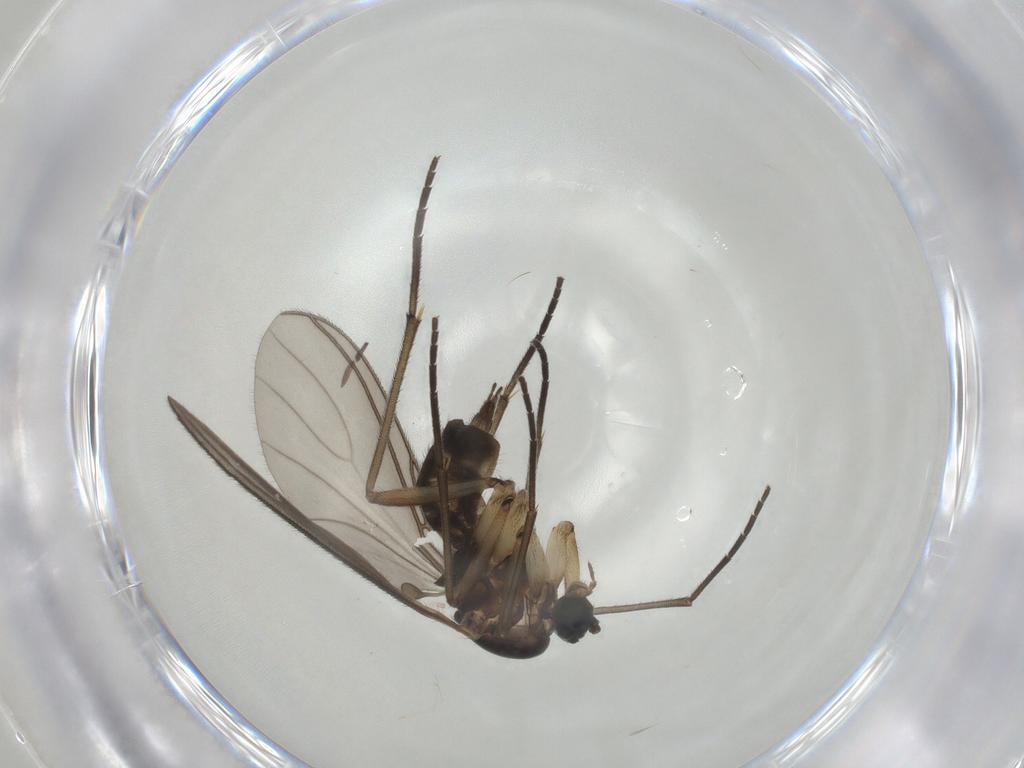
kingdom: Animalia
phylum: Arthropoda
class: Insecta
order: Diptera
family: Sciaridae
